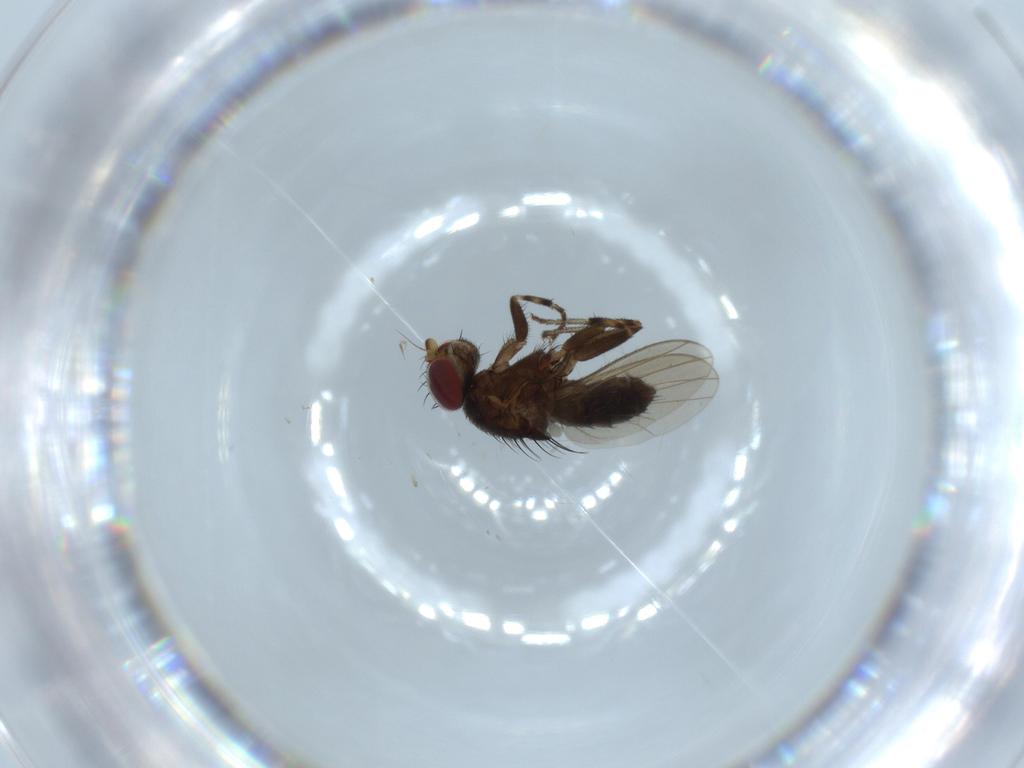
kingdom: Animalia
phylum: Arthropoda
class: Insecta
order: Diptera
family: Heleomyzidae
